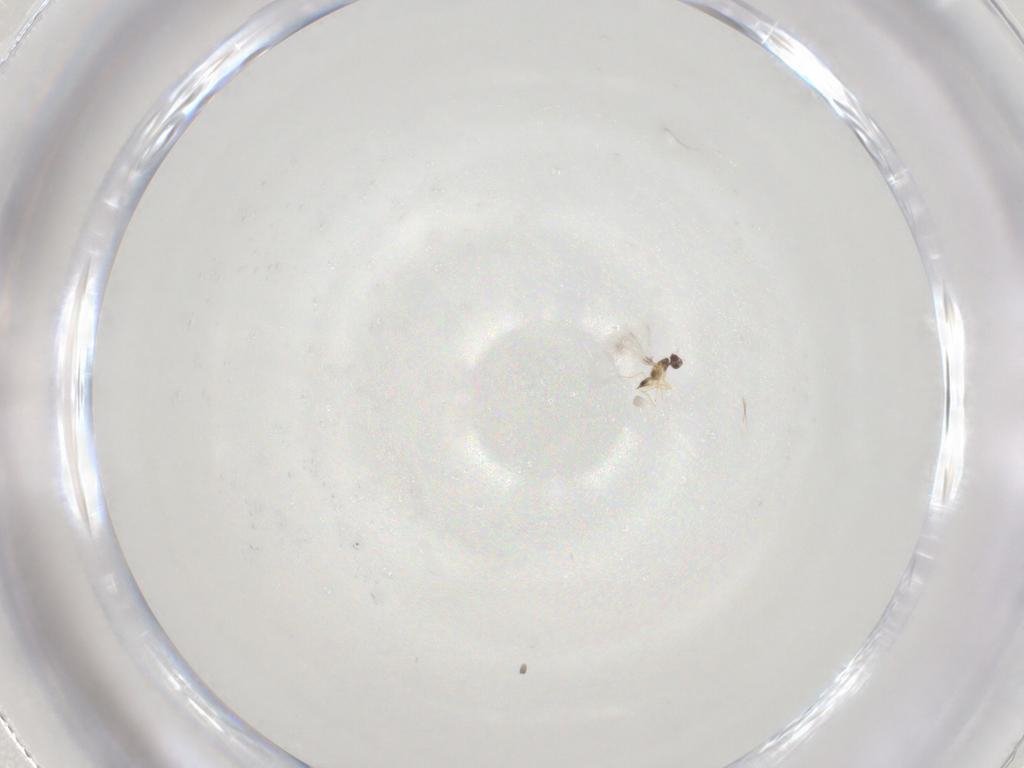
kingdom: Animalia
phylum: Arthropoda
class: Insecta
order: Hymenoptera
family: Mymaridae
